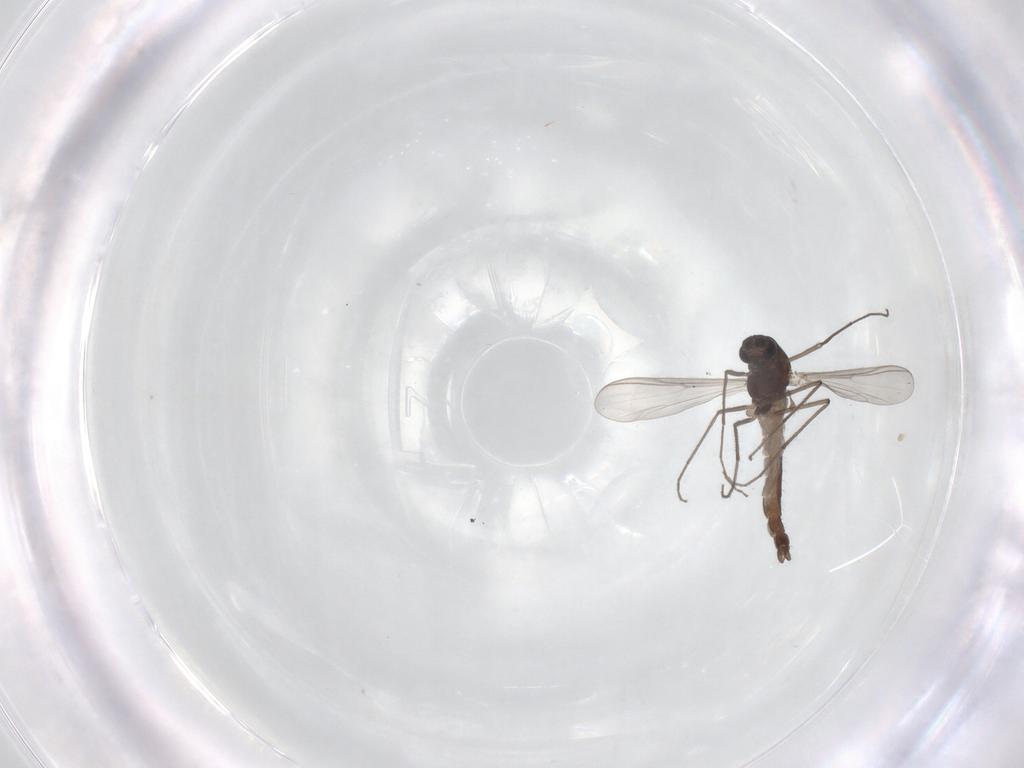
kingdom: Animalia
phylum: Arthropoda
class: Insecta
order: Diptera
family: Chironomidae
